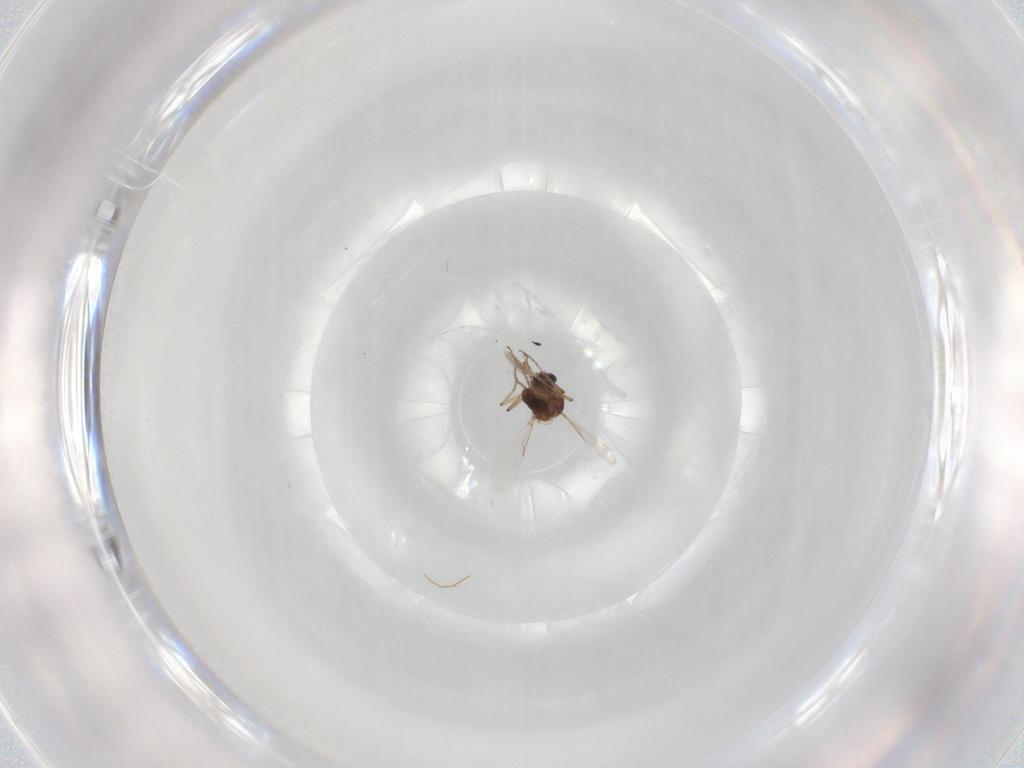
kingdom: Animalia
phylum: Arthropoda
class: Insecta
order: Diptera
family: Ceratopogonidae
